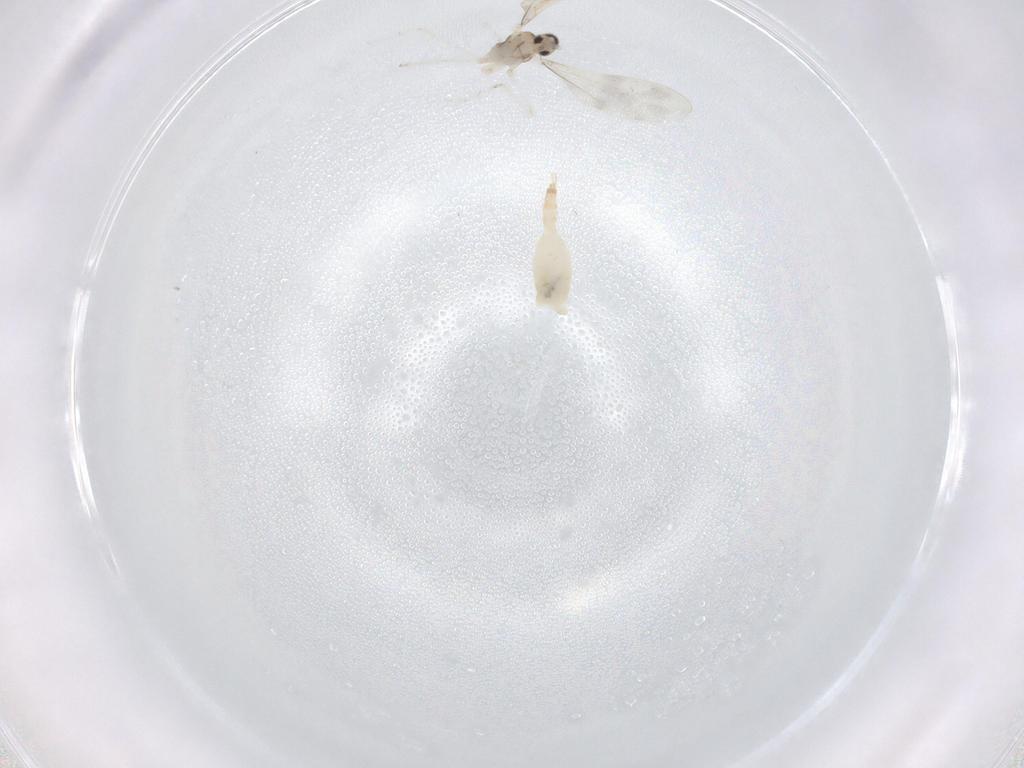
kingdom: Animalia
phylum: Arthropoda
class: Insecta
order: Diptera
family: Cecidomyiidae
